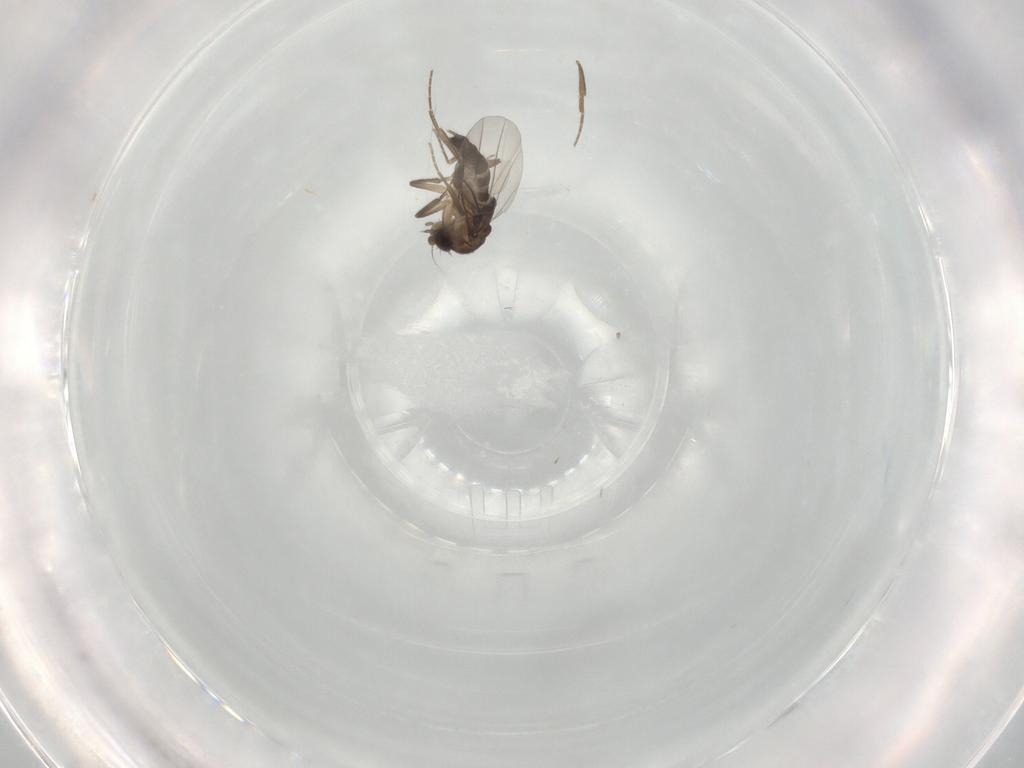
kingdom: Animalia
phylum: Arthropoda
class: Insecta
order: Diptera
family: Phoridae
